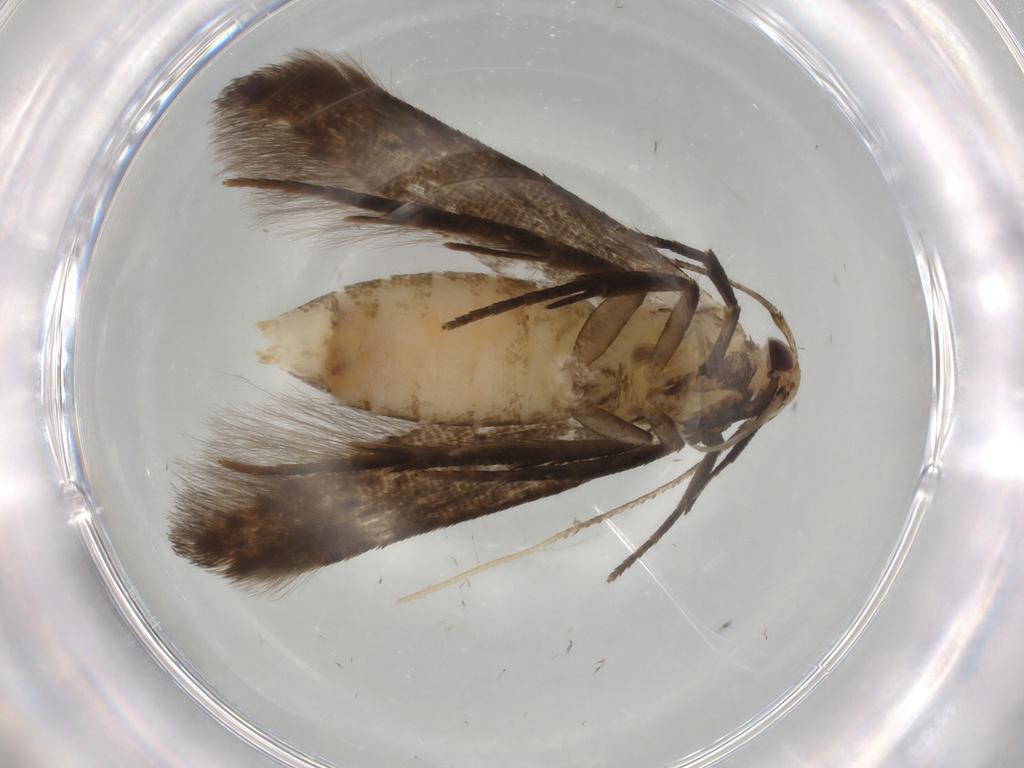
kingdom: Animalia
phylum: Arthropoda
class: Insecta
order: Lepidoptera
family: Autostichidae
